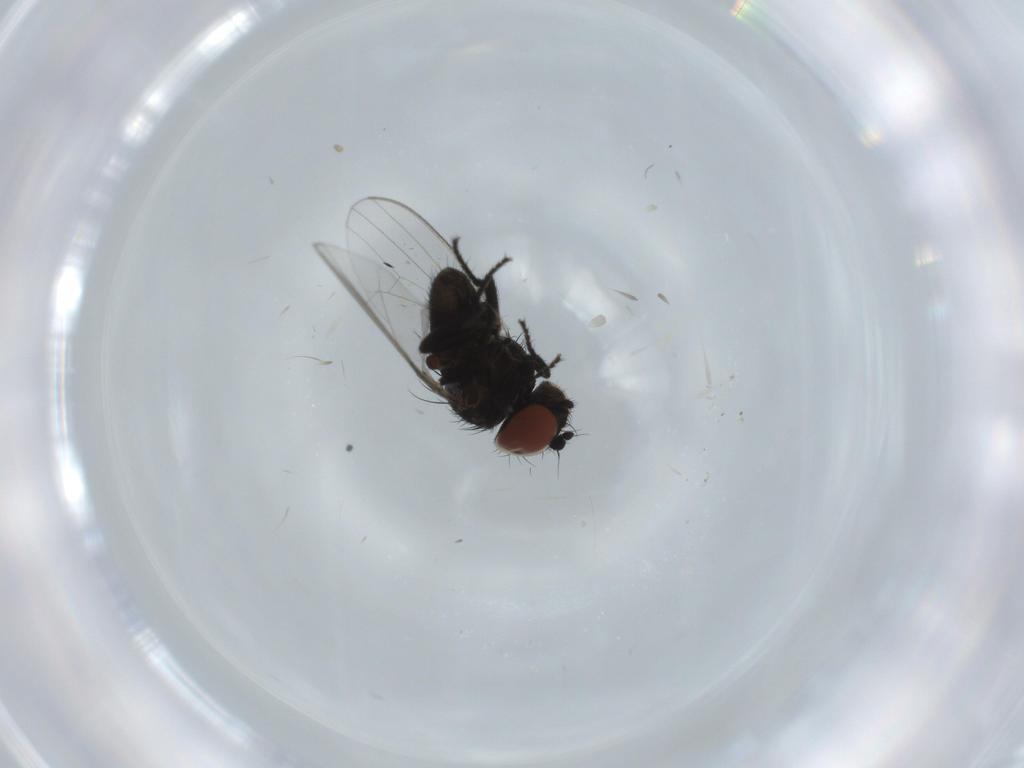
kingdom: Animalia
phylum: Arthropoda
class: Insecta
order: Diptera
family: Milichiidae
